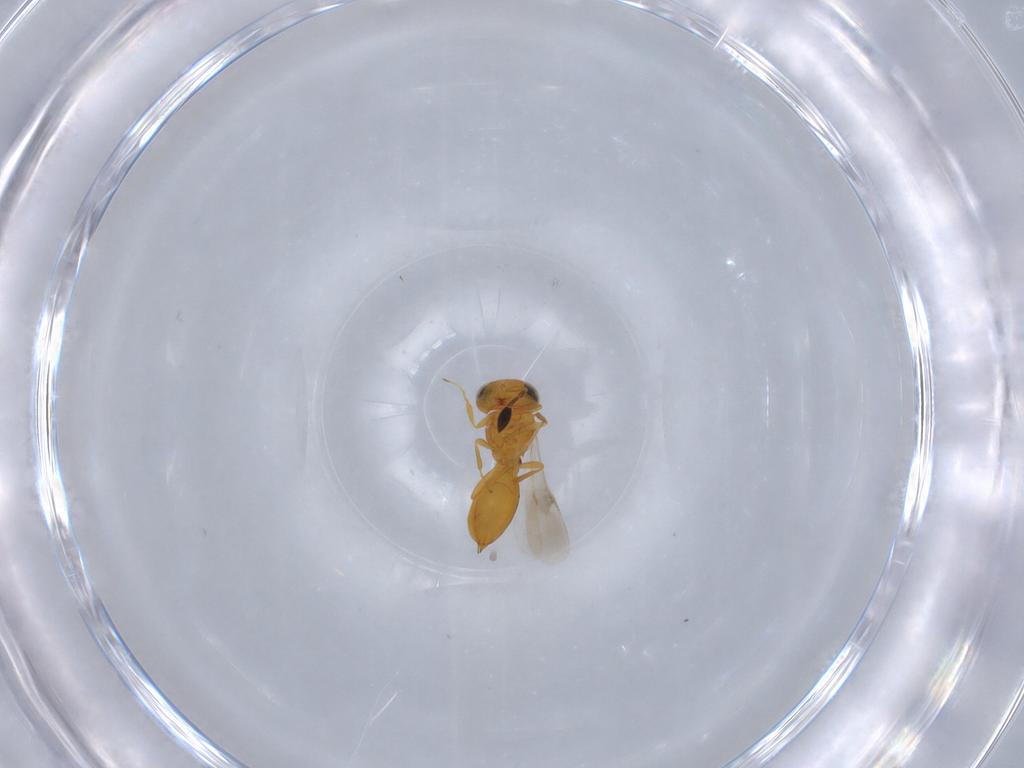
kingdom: Animalia
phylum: Arthropoda
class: Insecta
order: Hymenoptera
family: Scelionidae
